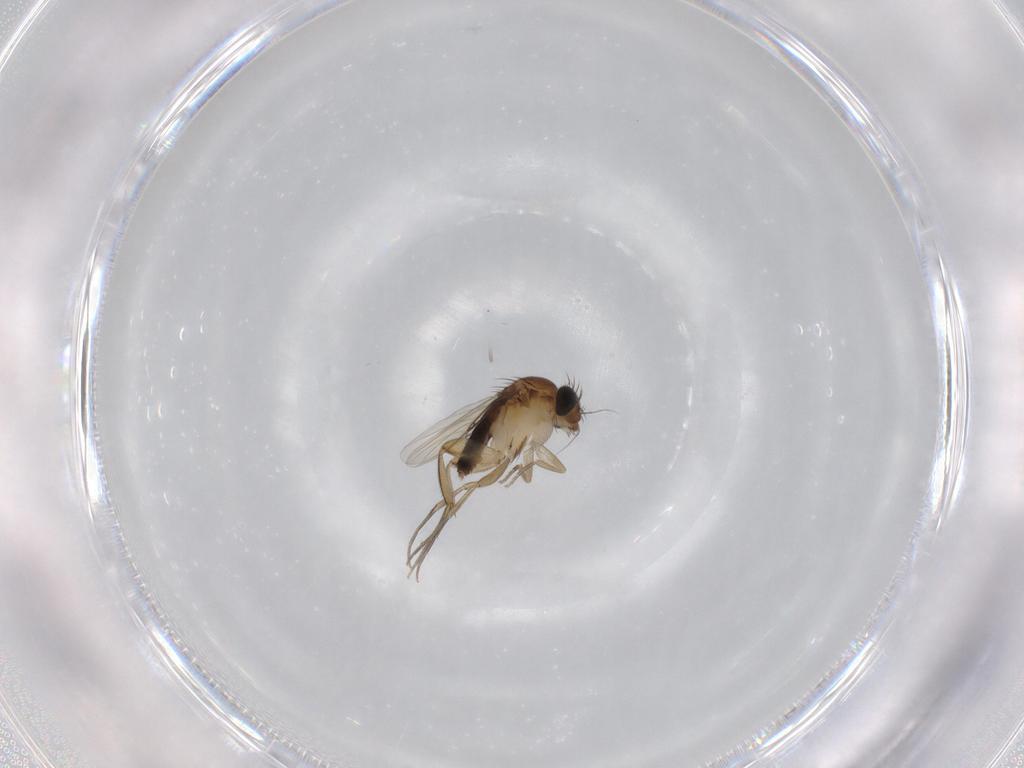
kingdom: Animalia
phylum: Arthropoda
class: Insecta
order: Diptera
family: Phoridae
